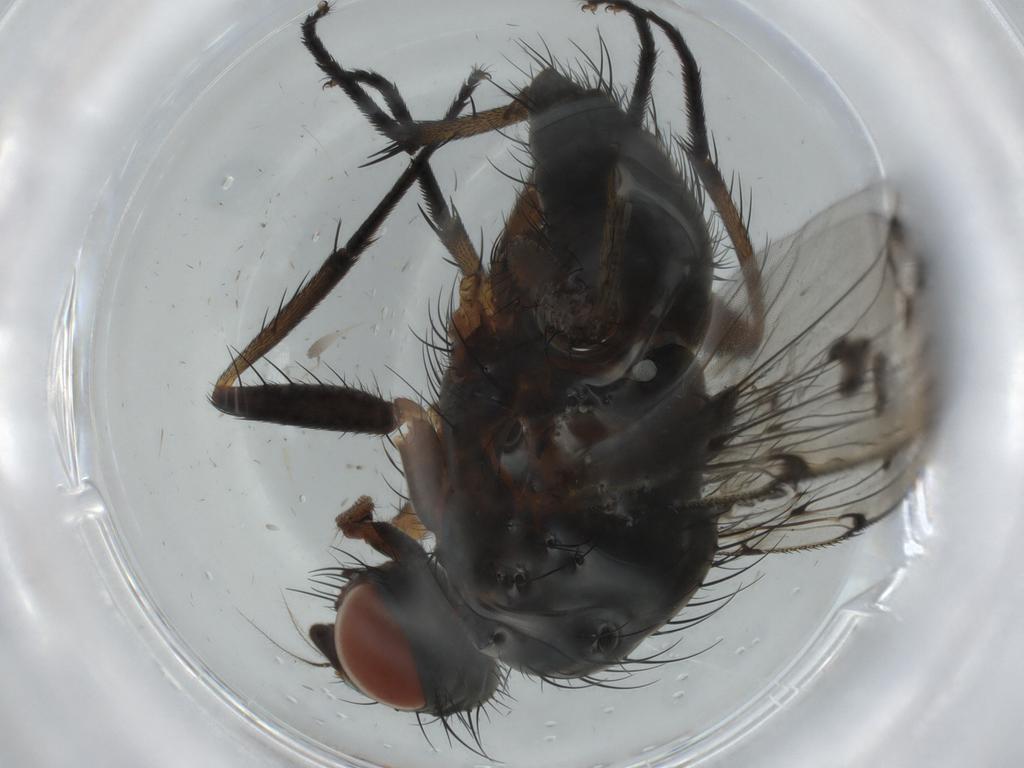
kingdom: Animalia
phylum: Arthropoda
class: Insecta
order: Diptera
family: Anthomyiidae
